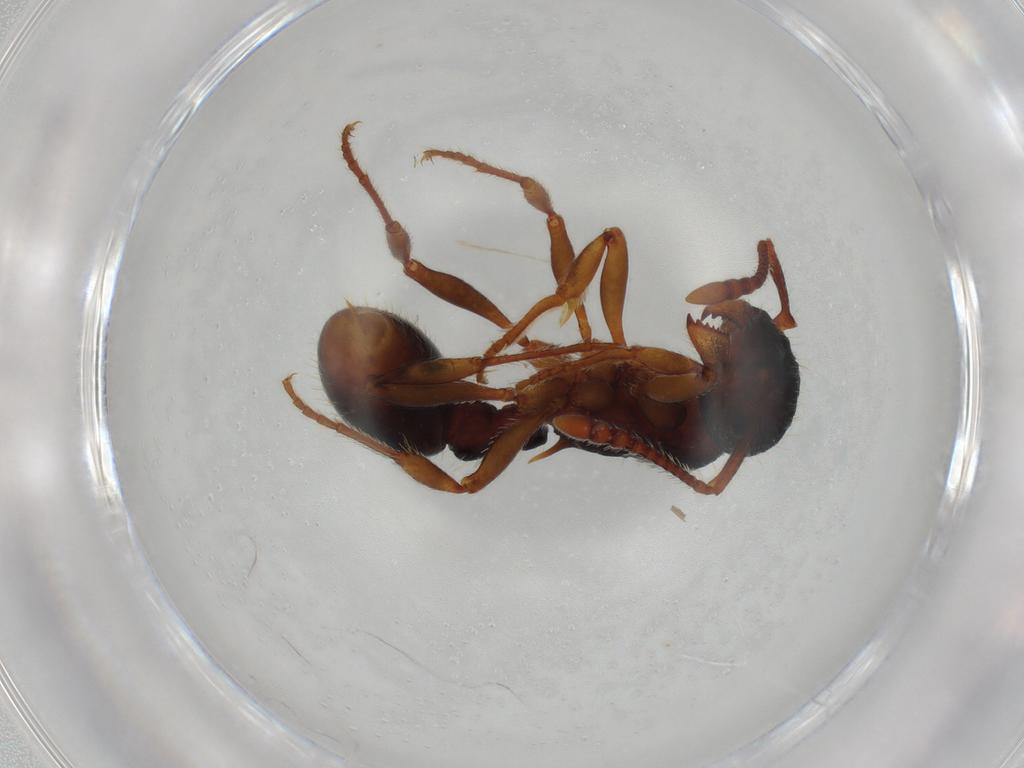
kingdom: Animalia
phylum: Arthropoda
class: Insecta
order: Hymenoptera
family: Formicidae
